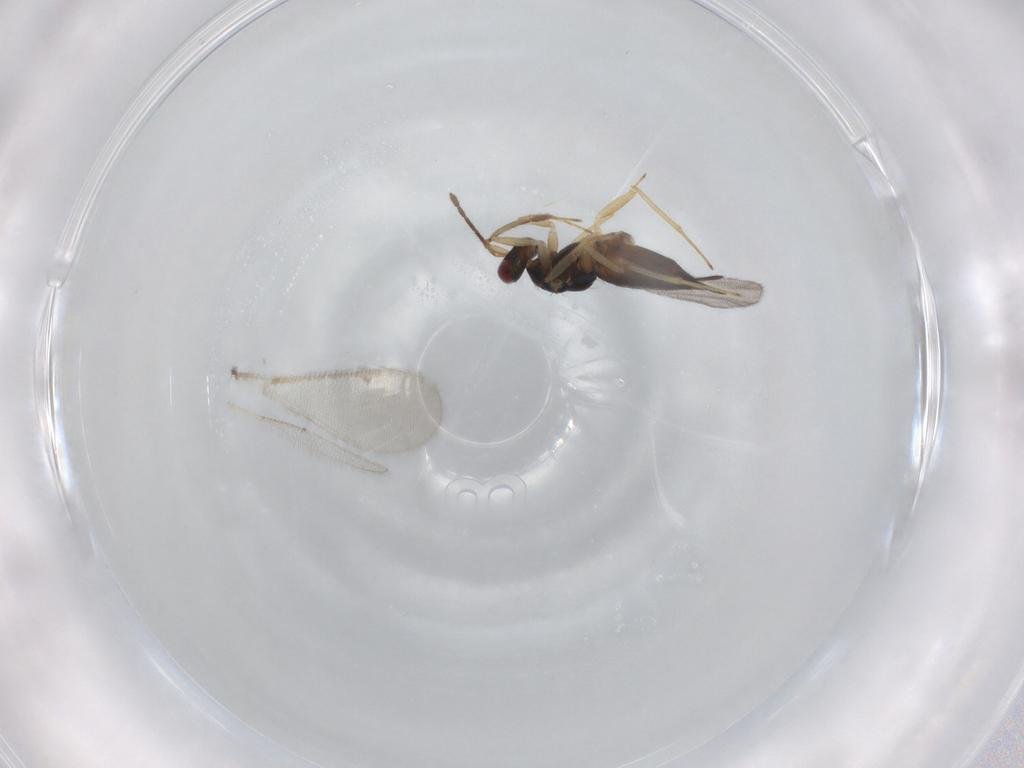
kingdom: Animalia
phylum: Arthropoda
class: Insecta
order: Hymenoptera
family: Eulophidae
